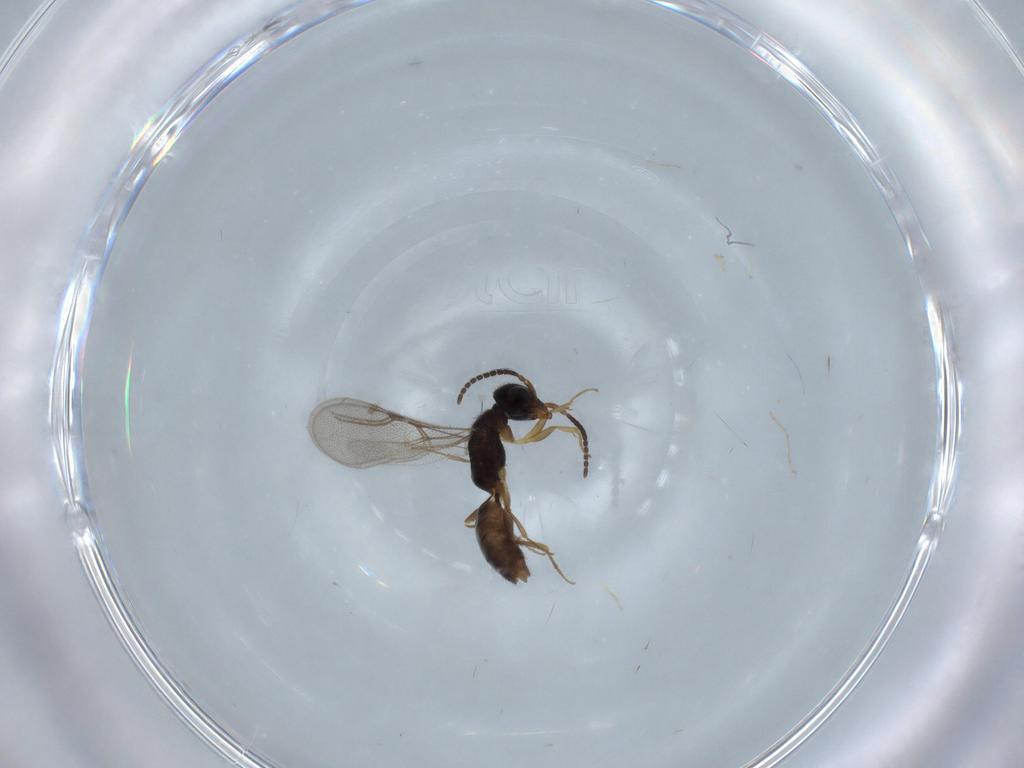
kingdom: Animalia
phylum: Arthropoda
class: Insecta
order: Hymenoptera
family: Bethylidae
